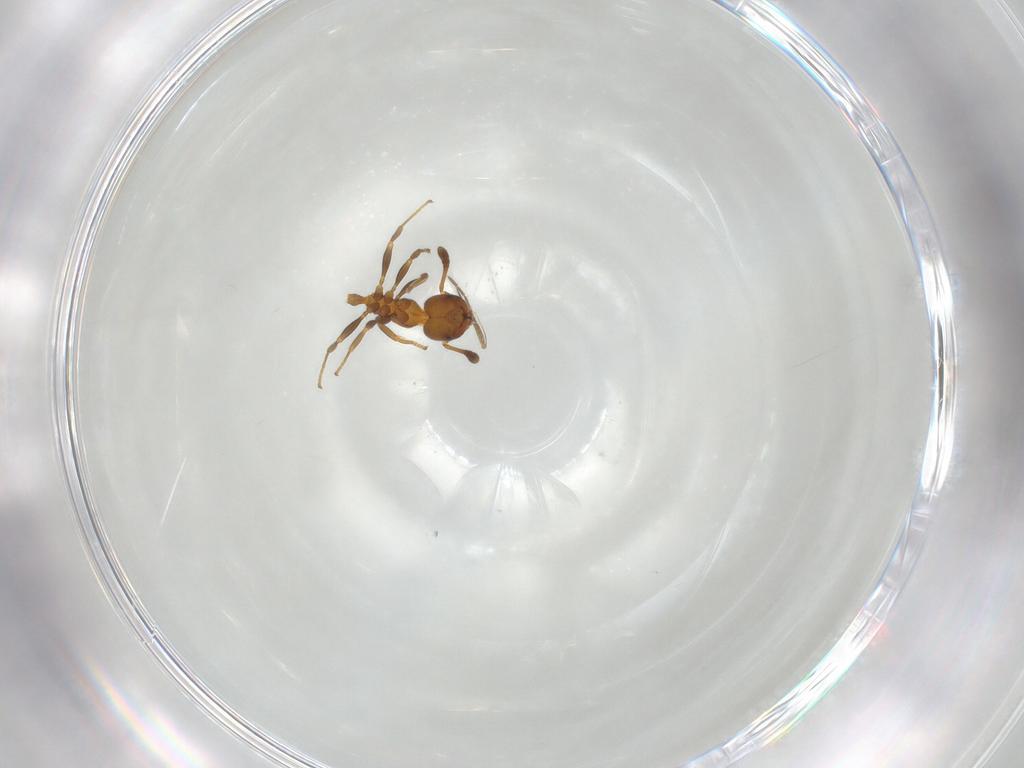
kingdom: Animalia
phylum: Arthropoda
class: Insecta
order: Hymenoptera
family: Formicidae
